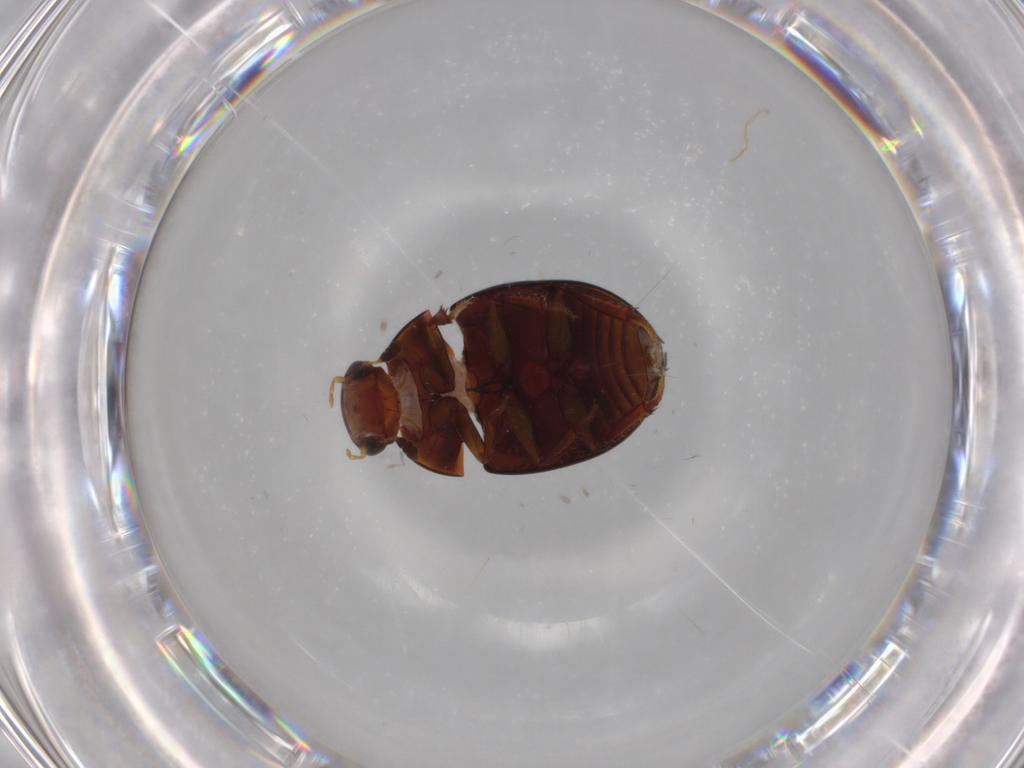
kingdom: Animalia
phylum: Arthropoda
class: Insecta
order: Coleoptera
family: Hydrophilidae
